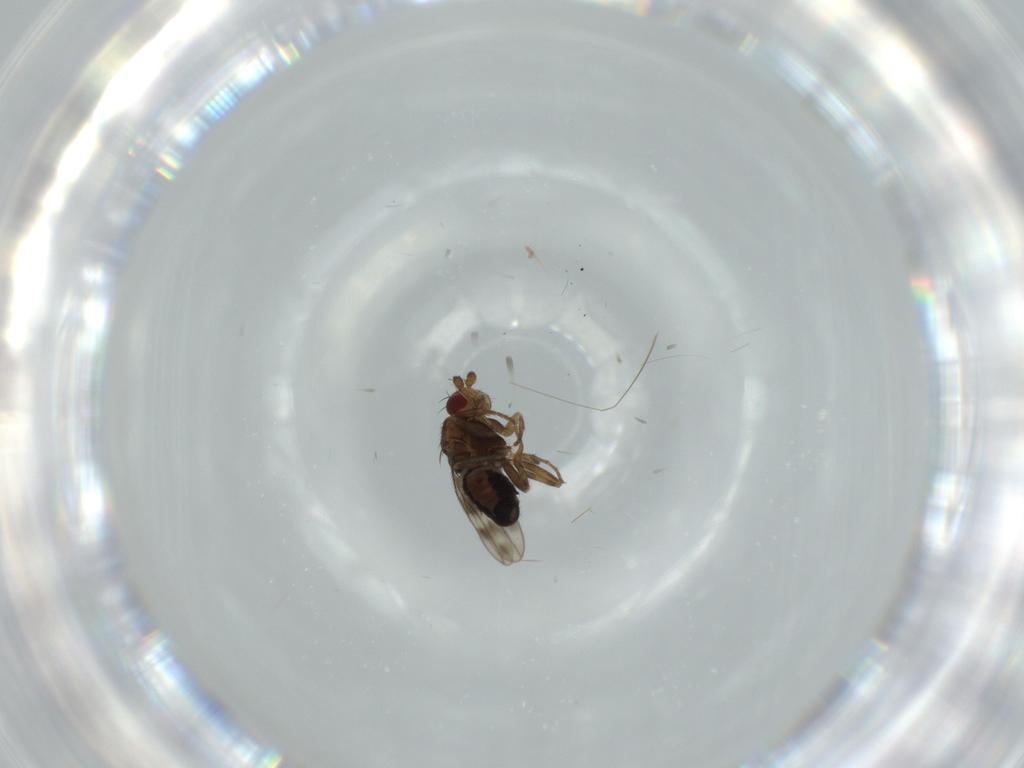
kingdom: Animalia
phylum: Arthropoda
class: Insecta
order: Diptera
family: Sphaeroceridae
